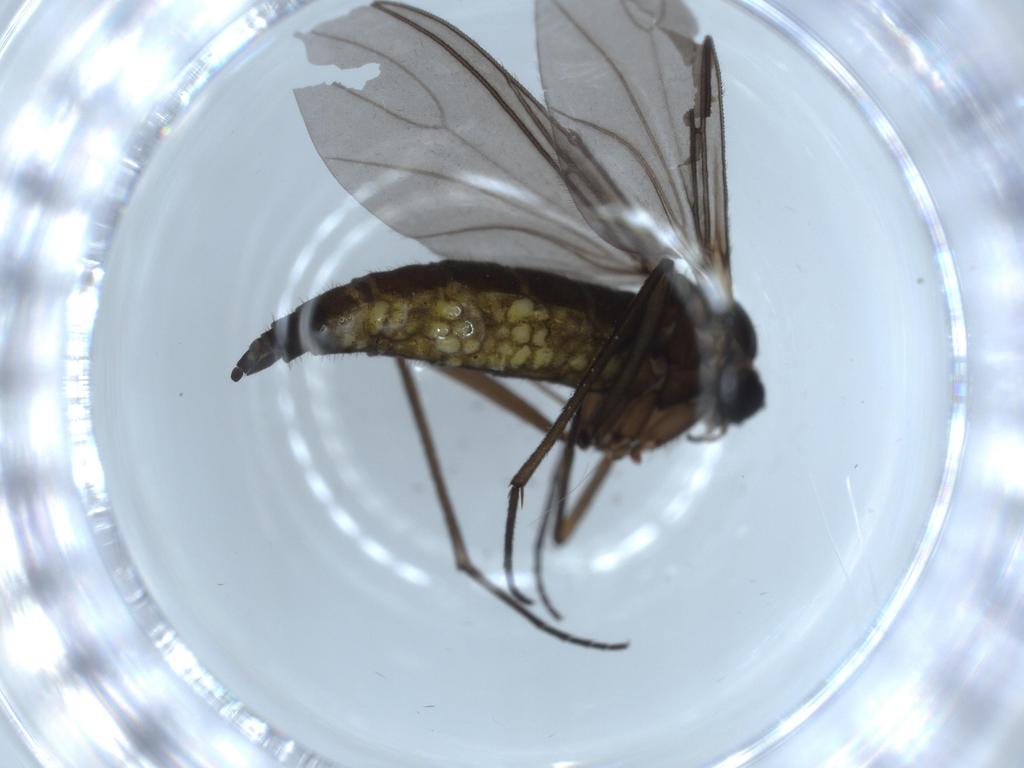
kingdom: Animalia
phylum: Arthropoda
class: Insecta
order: Diptera
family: Sciaridae
